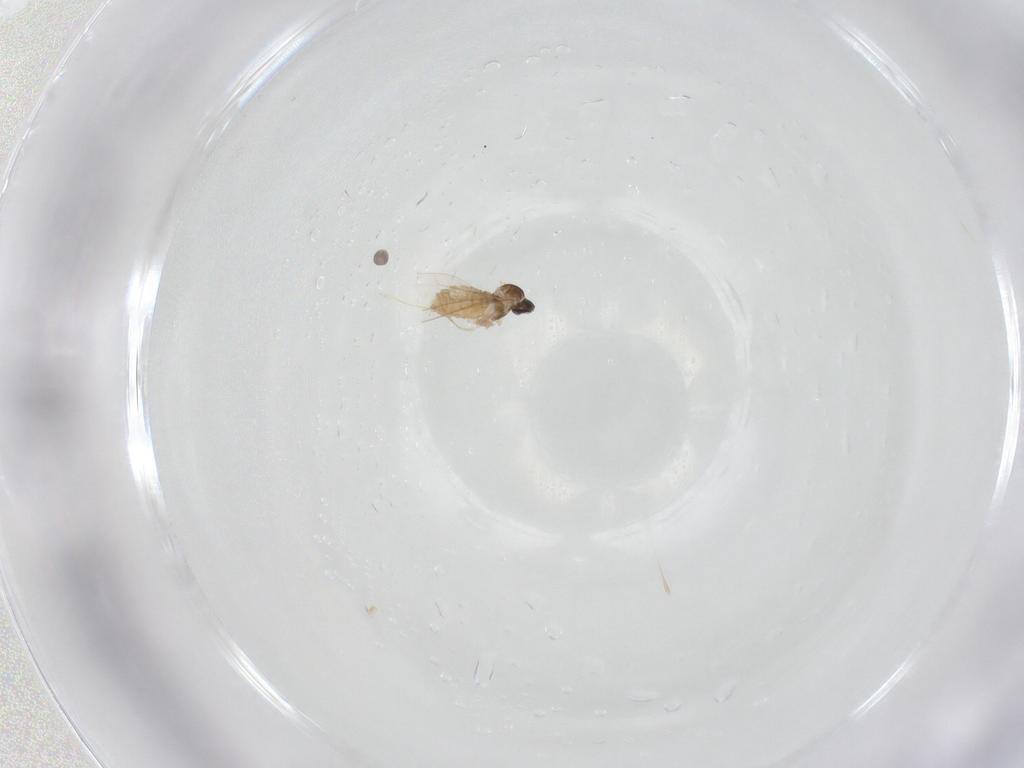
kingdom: Animalia
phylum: Arthropoda
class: Insecta
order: Diptera
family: Cecidomyiidae
